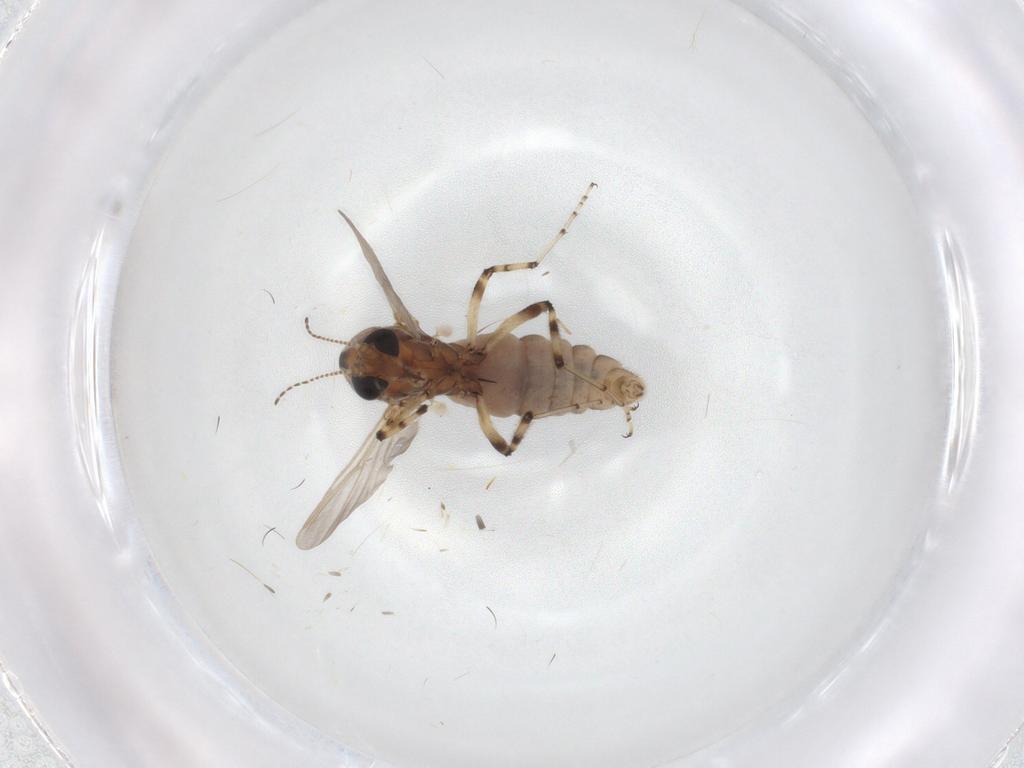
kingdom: Animalia
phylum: Arthropoda
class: Insecta
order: Diptera
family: Ceratopogonidae
